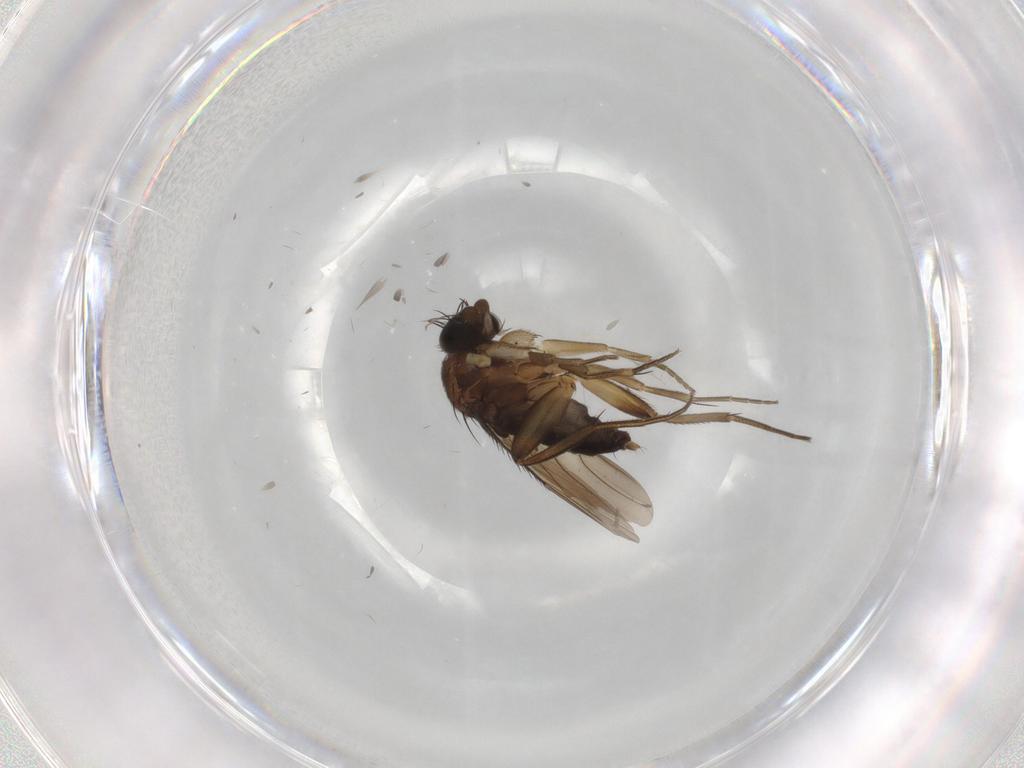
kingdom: Animalia
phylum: Arthropoda
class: Insecta
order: Diptera
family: Phoridae
